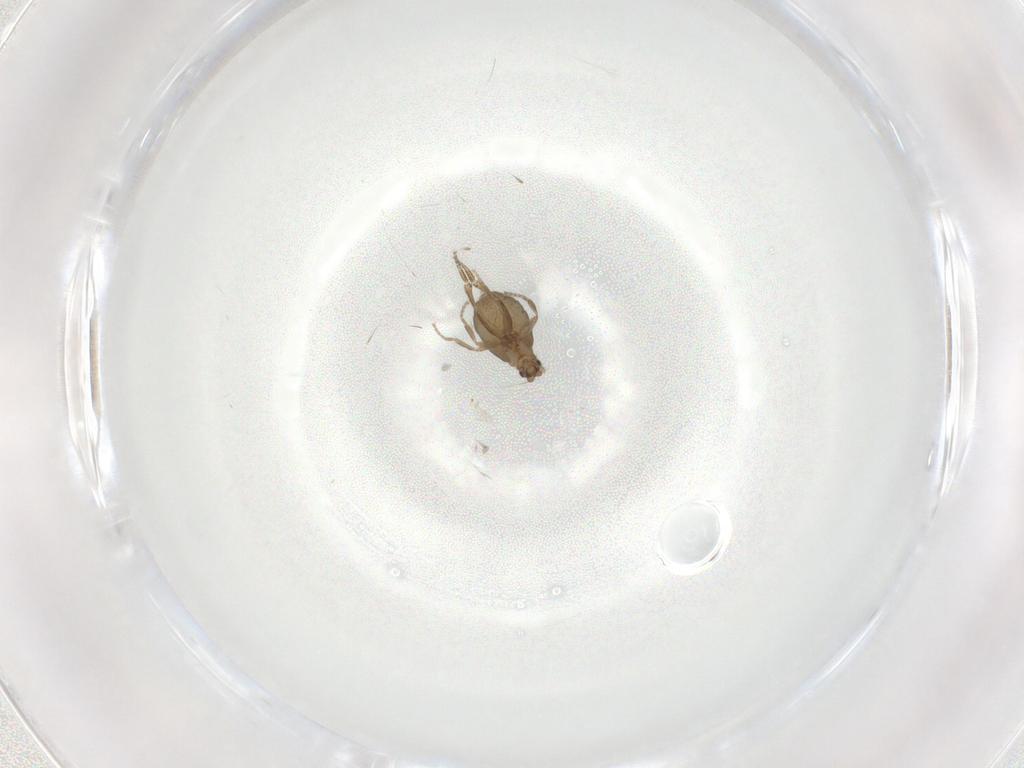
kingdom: Animalia
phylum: Arthropoda
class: Insecta
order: Diptera
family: Phoridae
